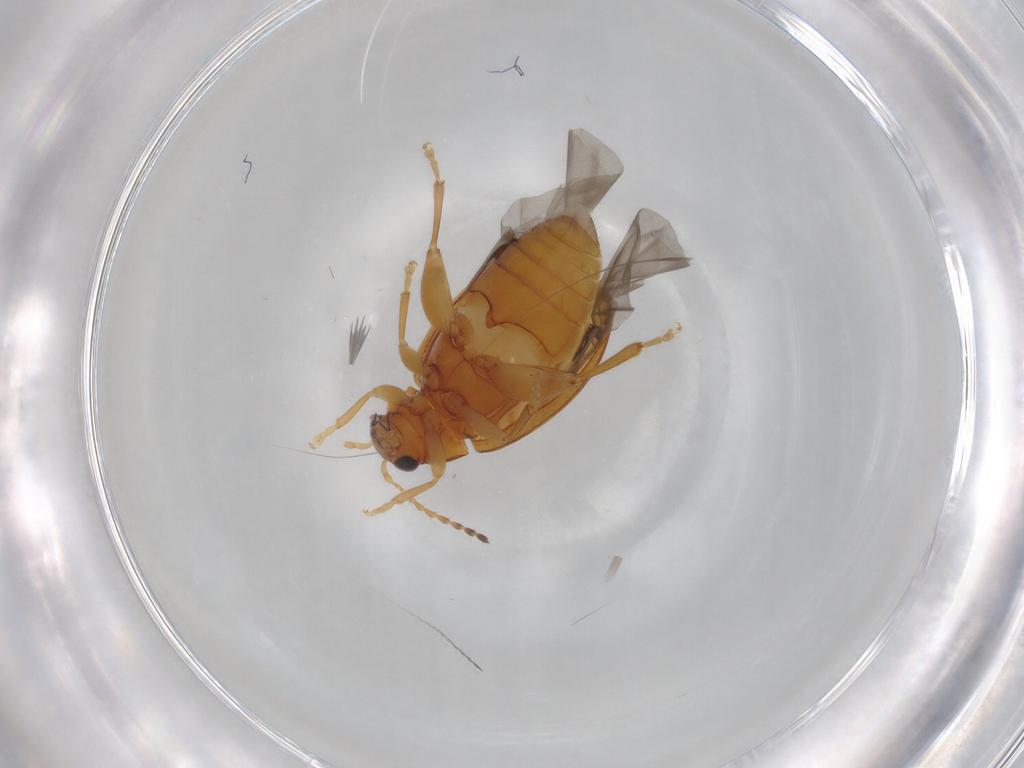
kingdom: Animalia
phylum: Arthropoda
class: Insecta
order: Coleoptera
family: Chrysomelidae
